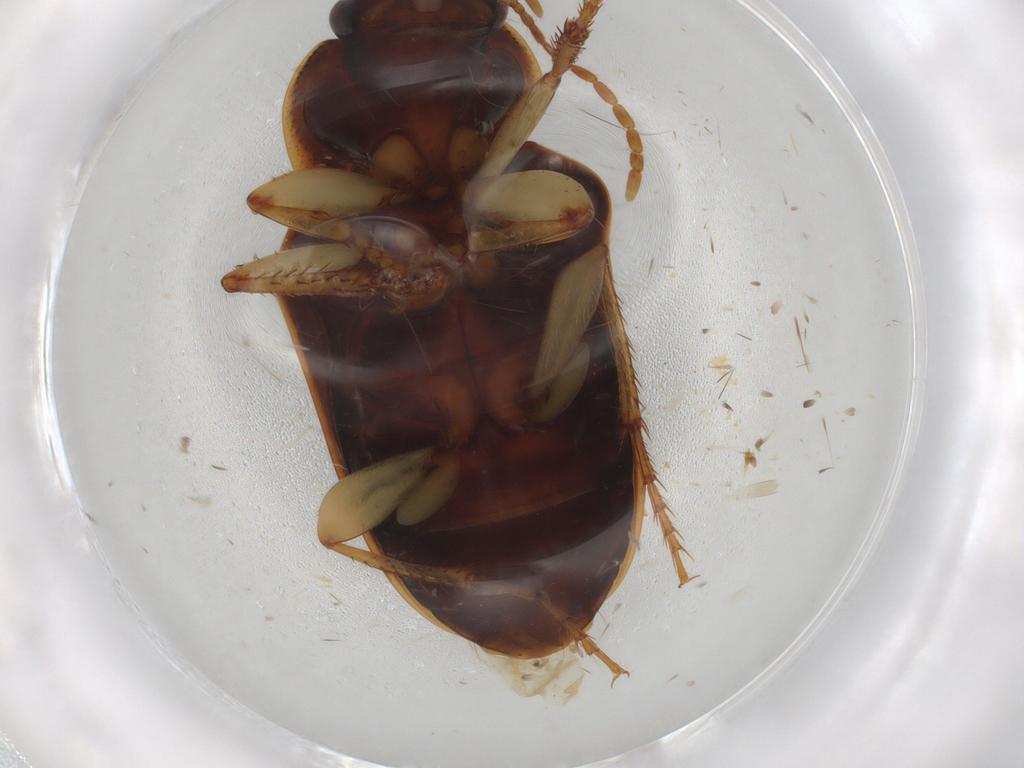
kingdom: Animalia
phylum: Arthropoda
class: Insecta
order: Coleoptera
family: Carabidae
